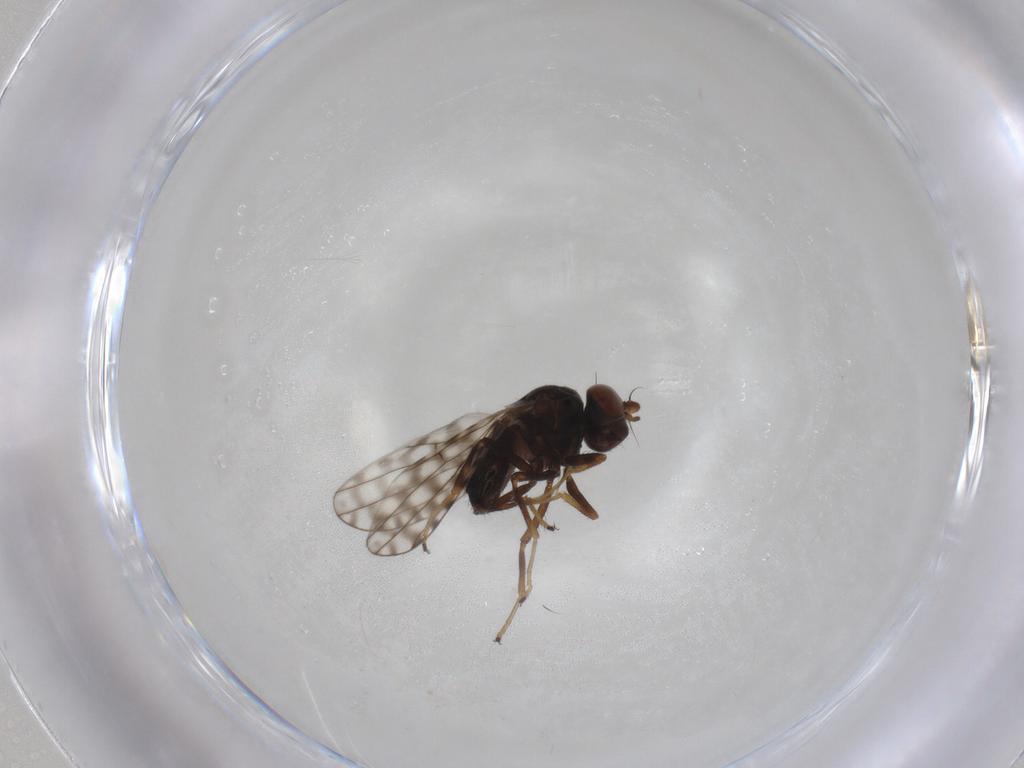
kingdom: Animalia
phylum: Arthropoda
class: Insecta
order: Diptera
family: Ephydridae
